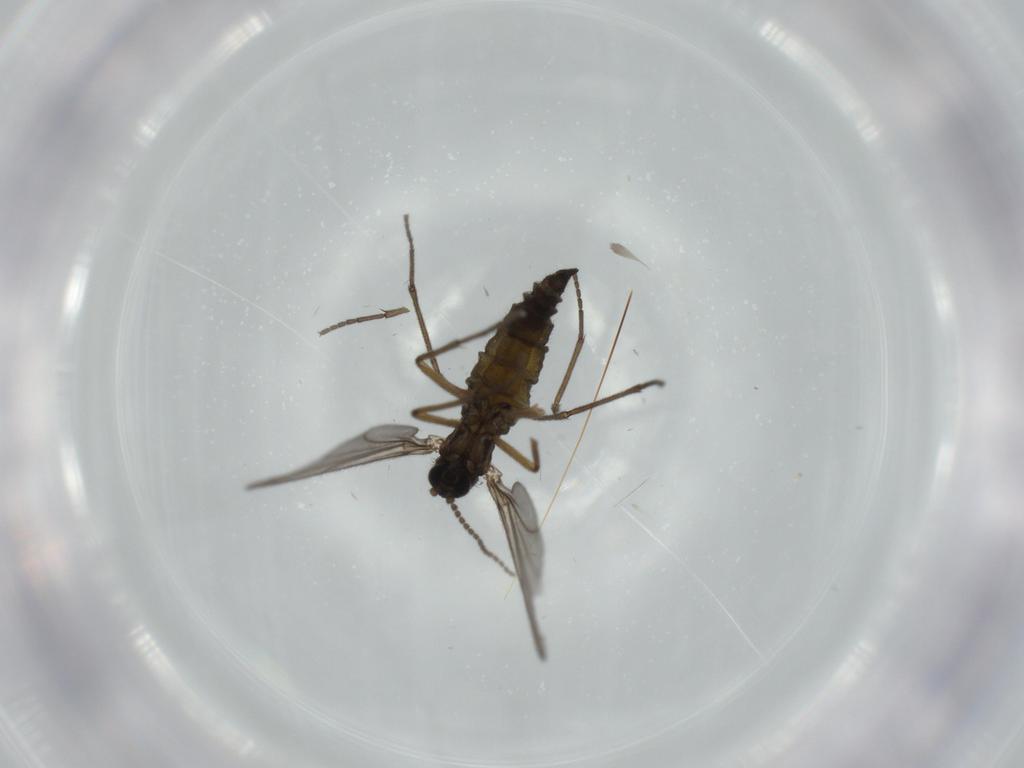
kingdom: Animalia
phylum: Arthropoda
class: Insecta
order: Diptera
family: Sciaridae
